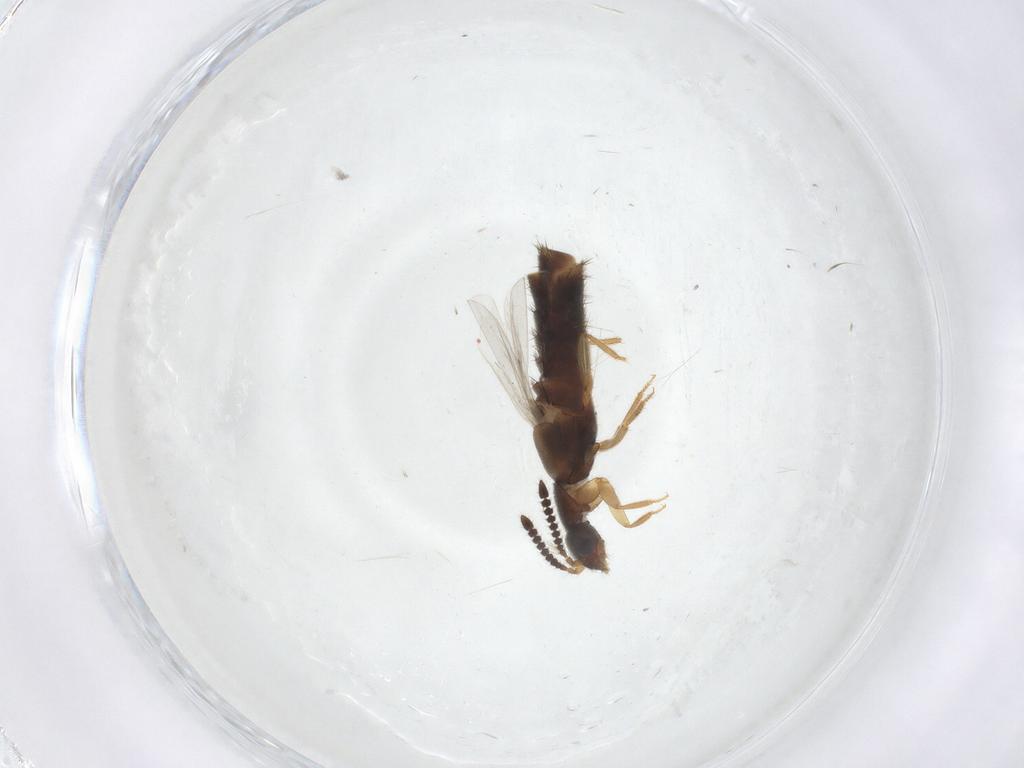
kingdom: Animalia
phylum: Arthropoda
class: Insecta
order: Coleoptera
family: Staphylinidae
